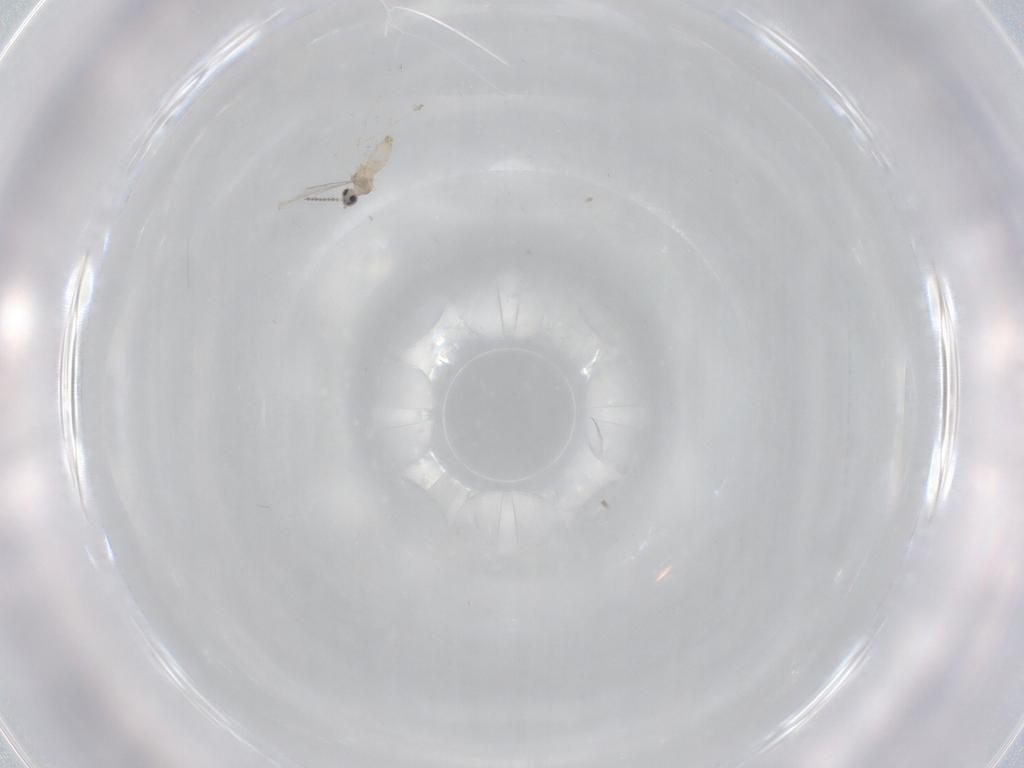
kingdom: Animalia
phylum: Arthropoda
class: Insecta
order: Diptera
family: Cecidomyiidae
